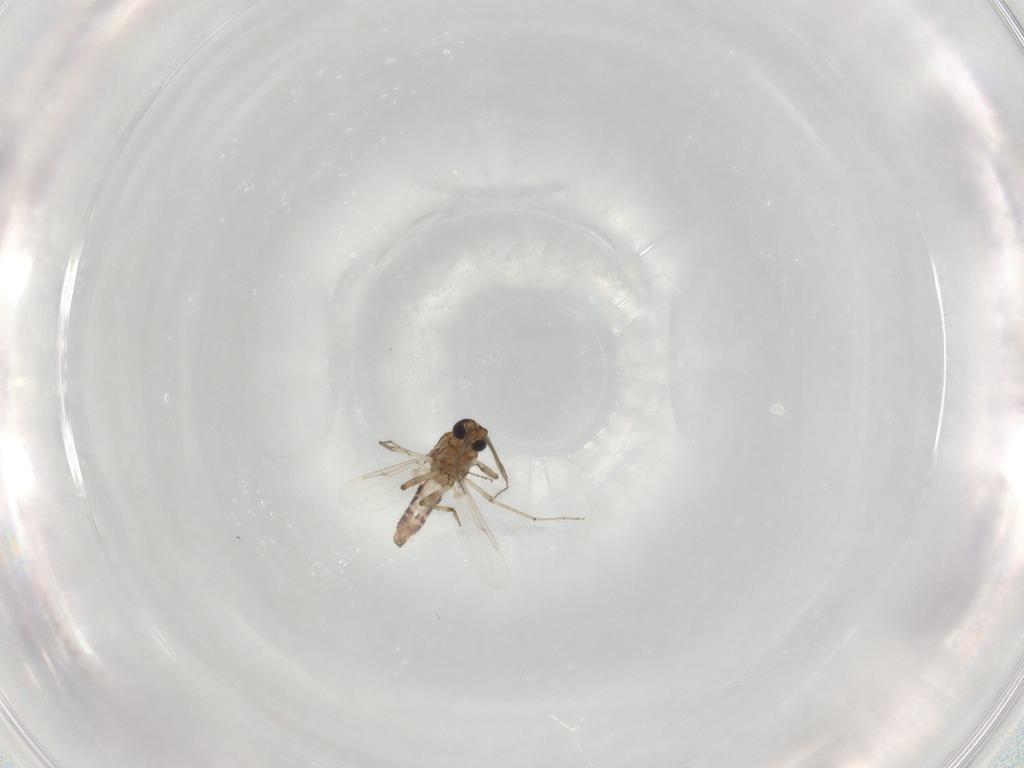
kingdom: Animalia
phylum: Arthropoda
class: Insecta
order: Diptera
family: Ceratopogonidae
